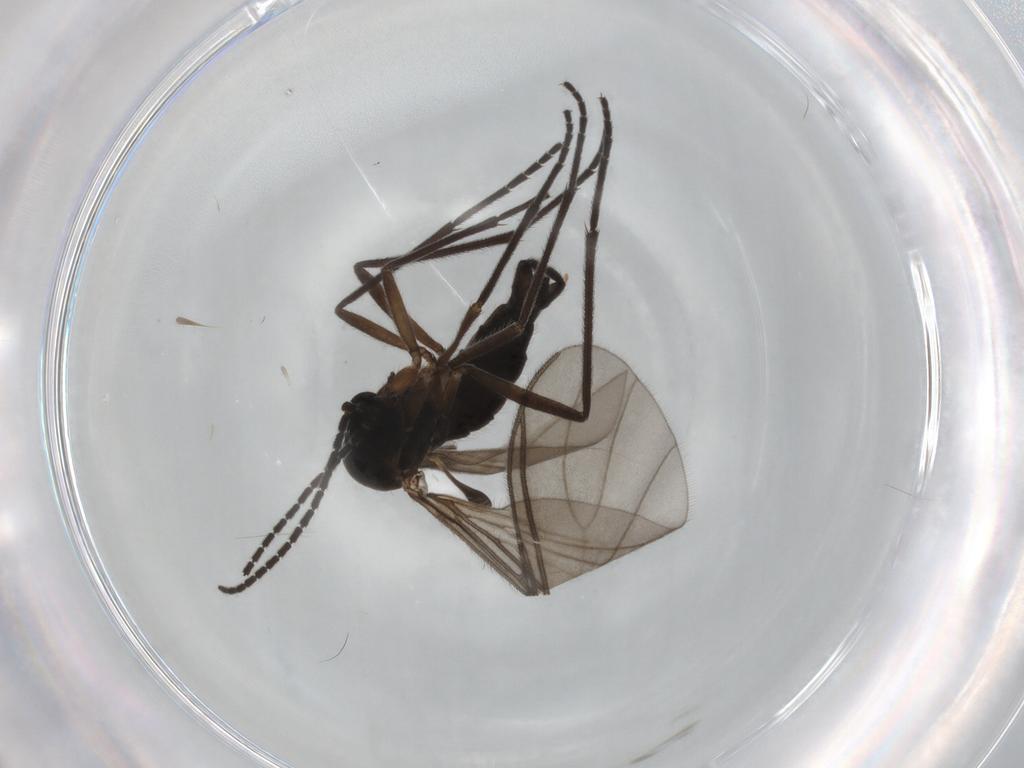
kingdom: Animalia
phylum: Arthropoda
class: Insecta
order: Diptera
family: Sciaridae
